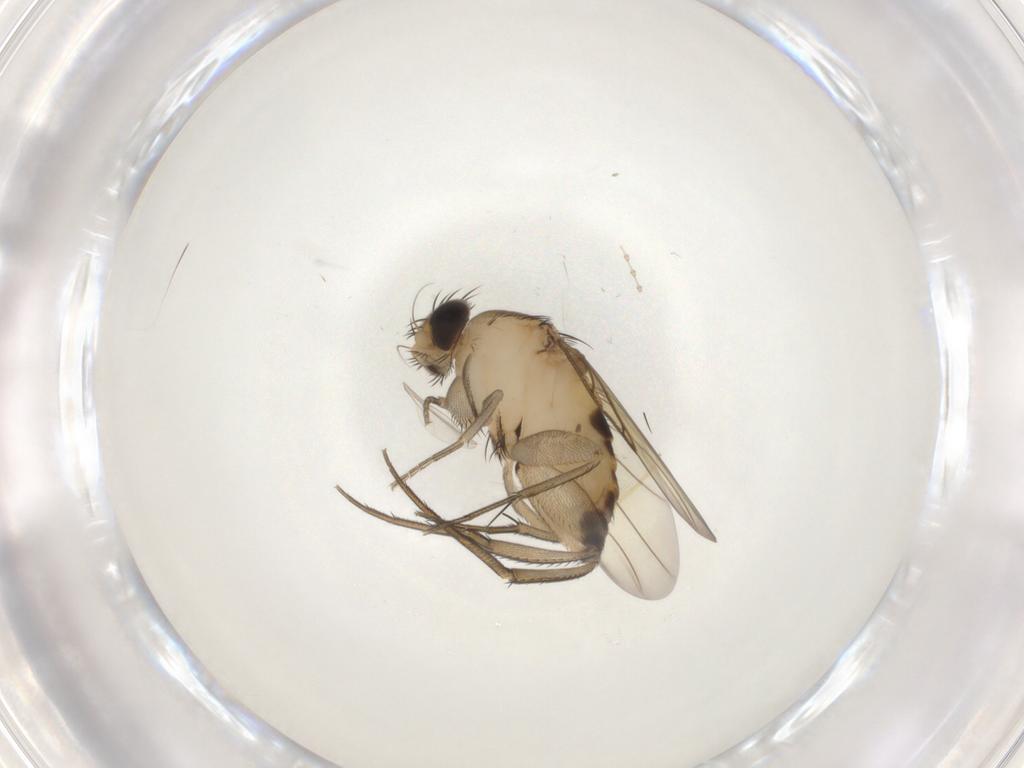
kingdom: Animalia
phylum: Arthropoda
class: Insecta
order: Diptera
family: Phoridae
